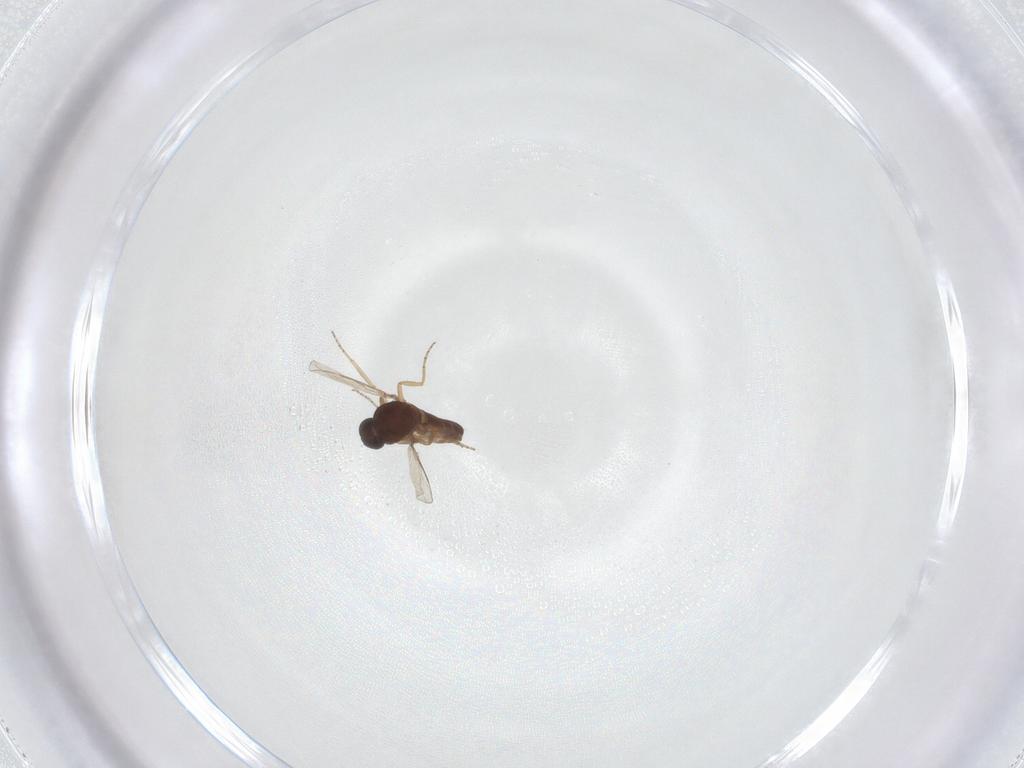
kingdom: Animalia
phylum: Arthropoda
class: Insecta
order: Diptera
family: Ceratopogonidae
